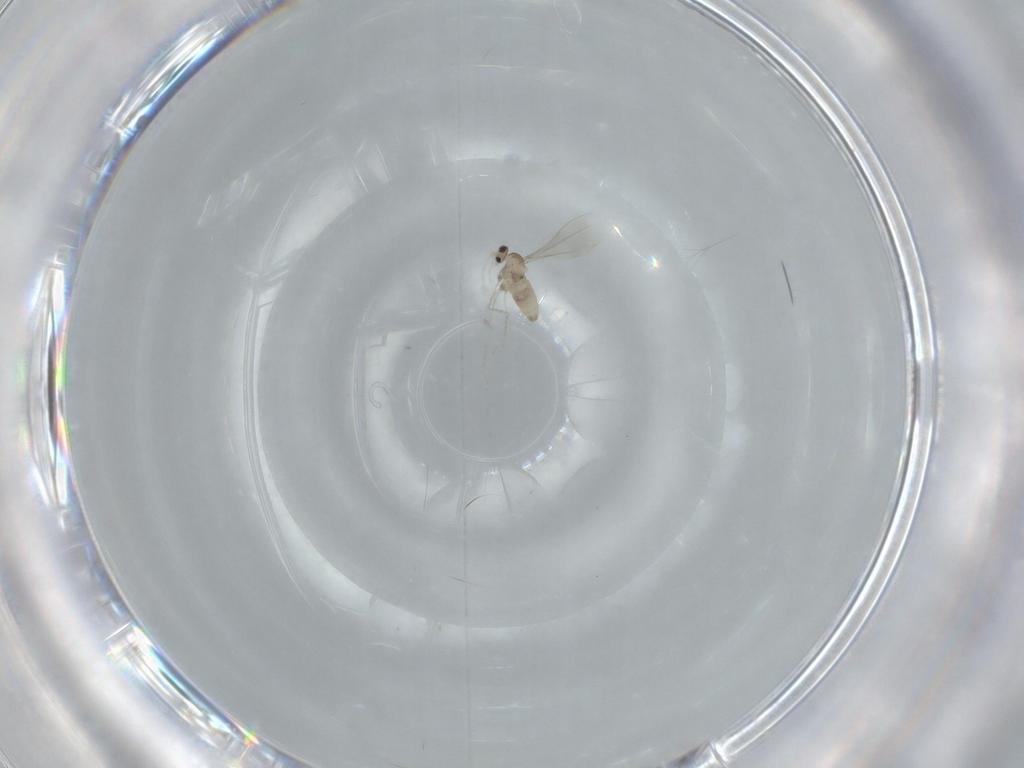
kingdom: Animalia
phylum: Arthropoda
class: Insecta
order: Diptera
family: Cecidomyiidae
